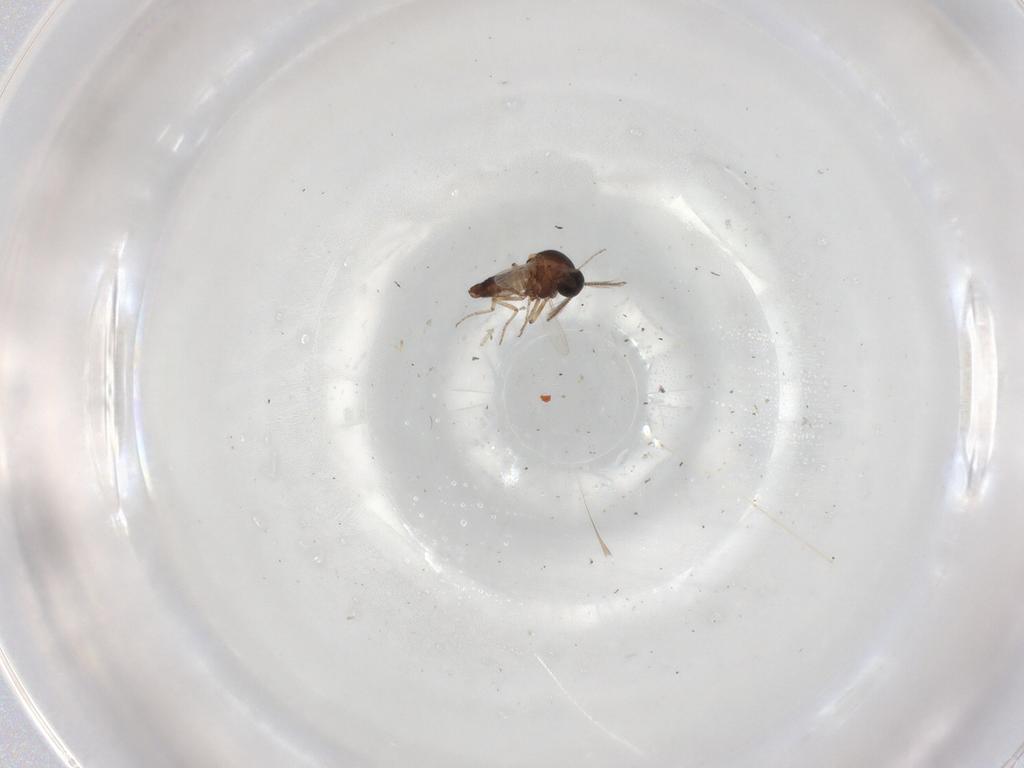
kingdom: Animalia
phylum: Arthropoda
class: Insecta
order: Diptera
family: Ceratopogonidae
